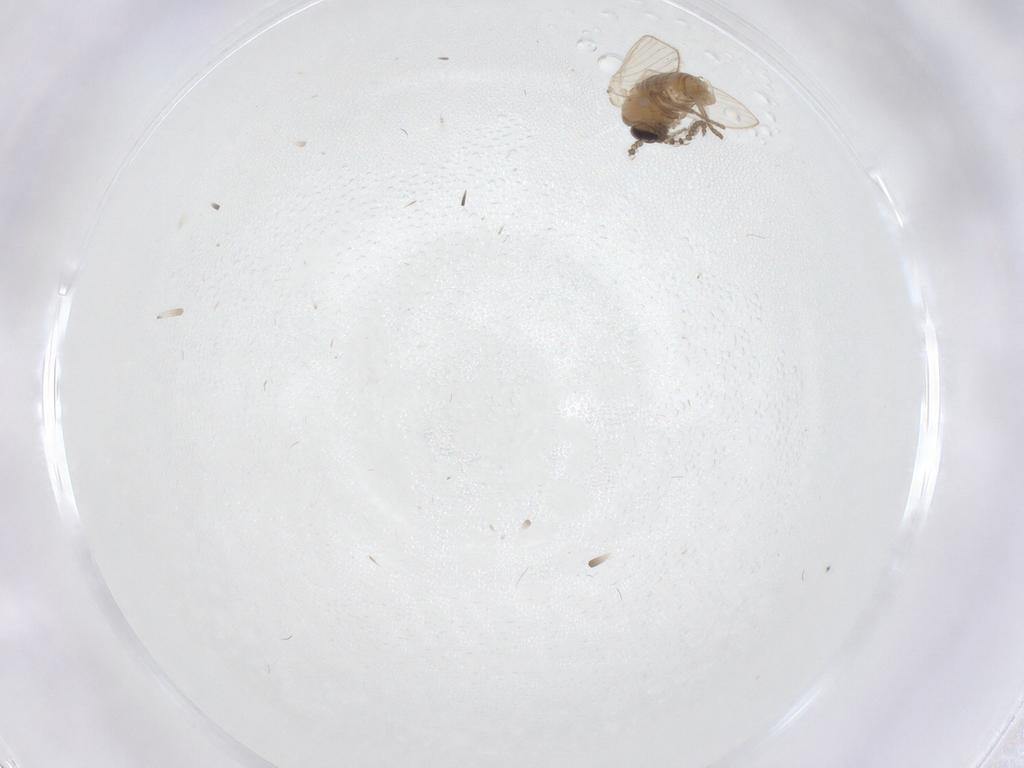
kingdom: Animalia
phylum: Arthropoda
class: Insecta
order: Diptera
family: Psychodidae
